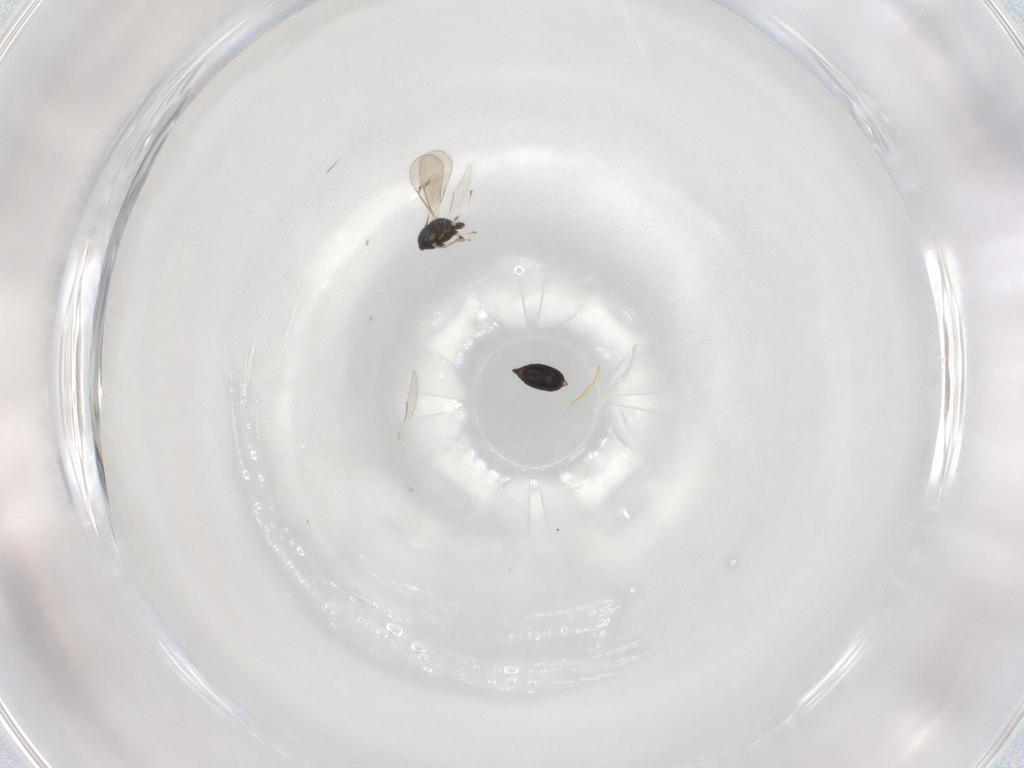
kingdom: Animalia
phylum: Arthropoda
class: Insecta
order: Hymenoptera
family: Eulophidae
